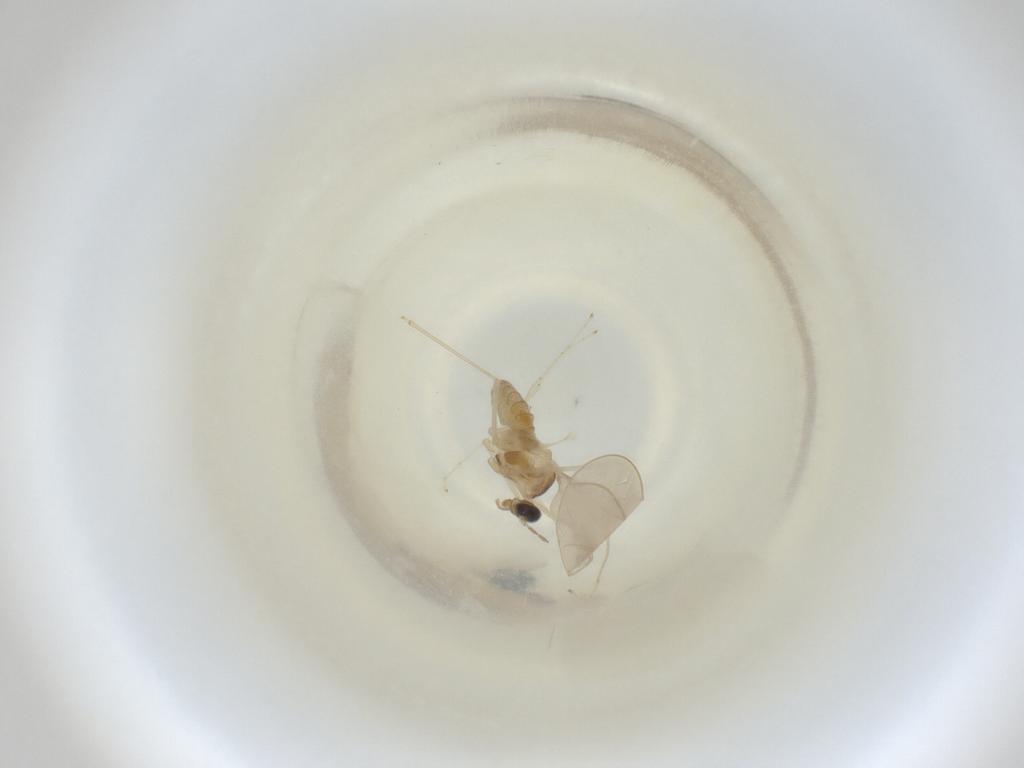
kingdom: Animalia
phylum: Arthropoda
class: Insecta
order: Diptera
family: Cecidomyiidae
